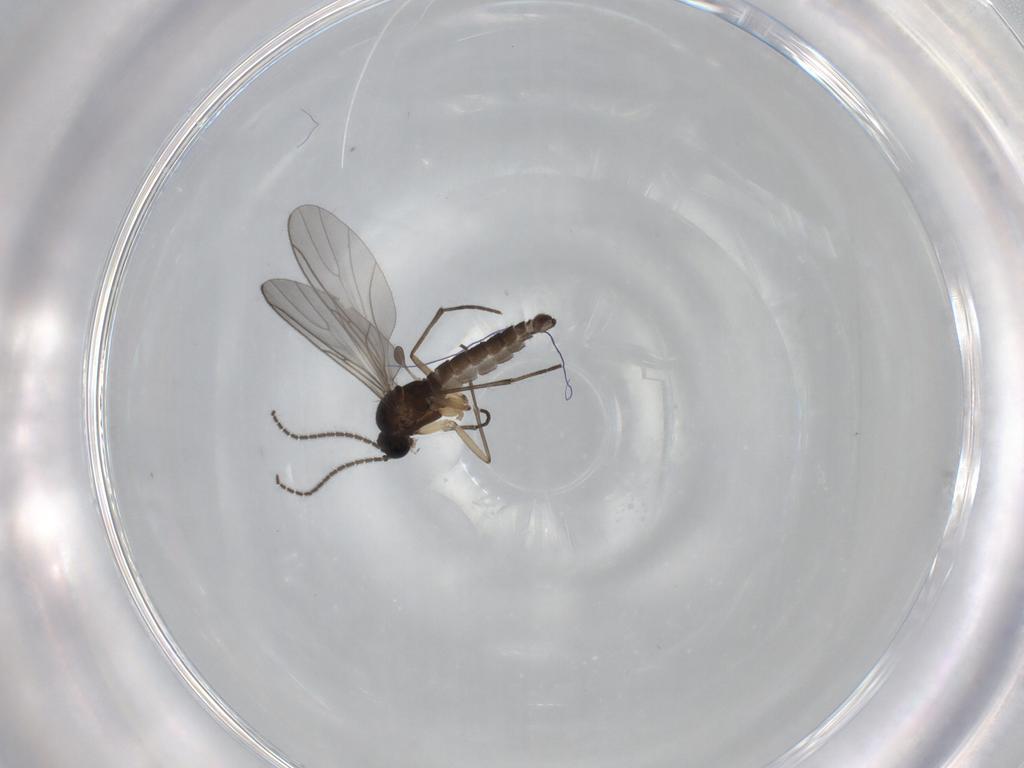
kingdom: Animalia
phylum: Arthropoda
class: Insecta
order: Diptera
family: Sciaridae
